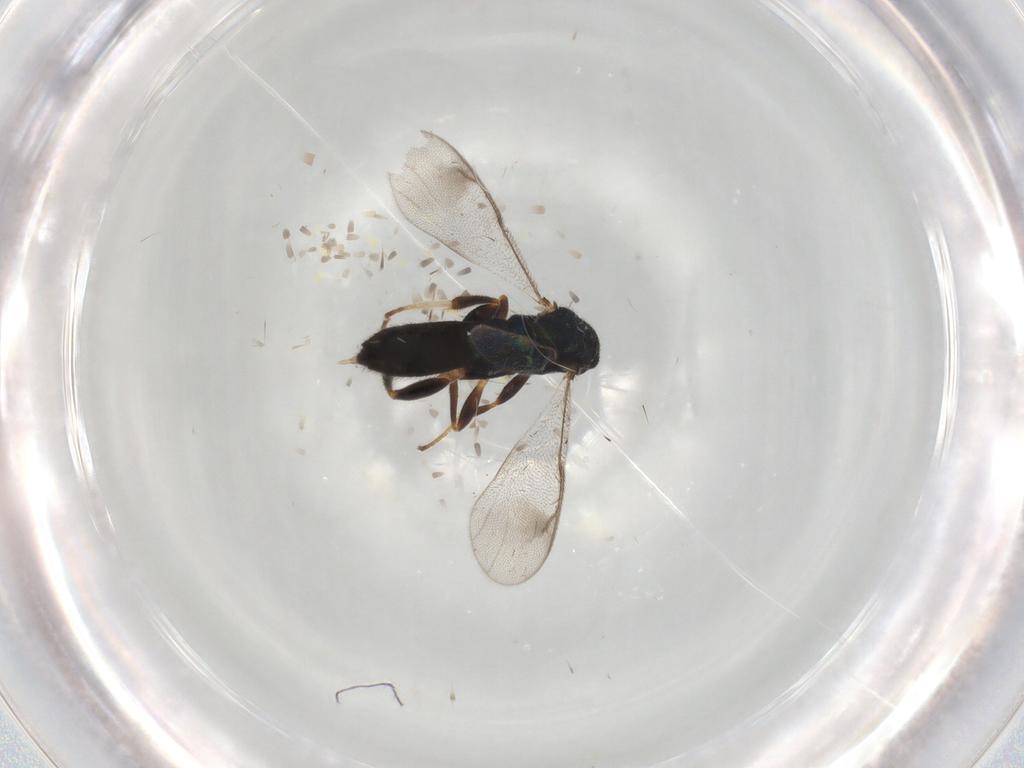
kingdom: Animalia
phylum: Arthropoda
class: Insecta
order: Hymenoptera
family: Cleonyminae
